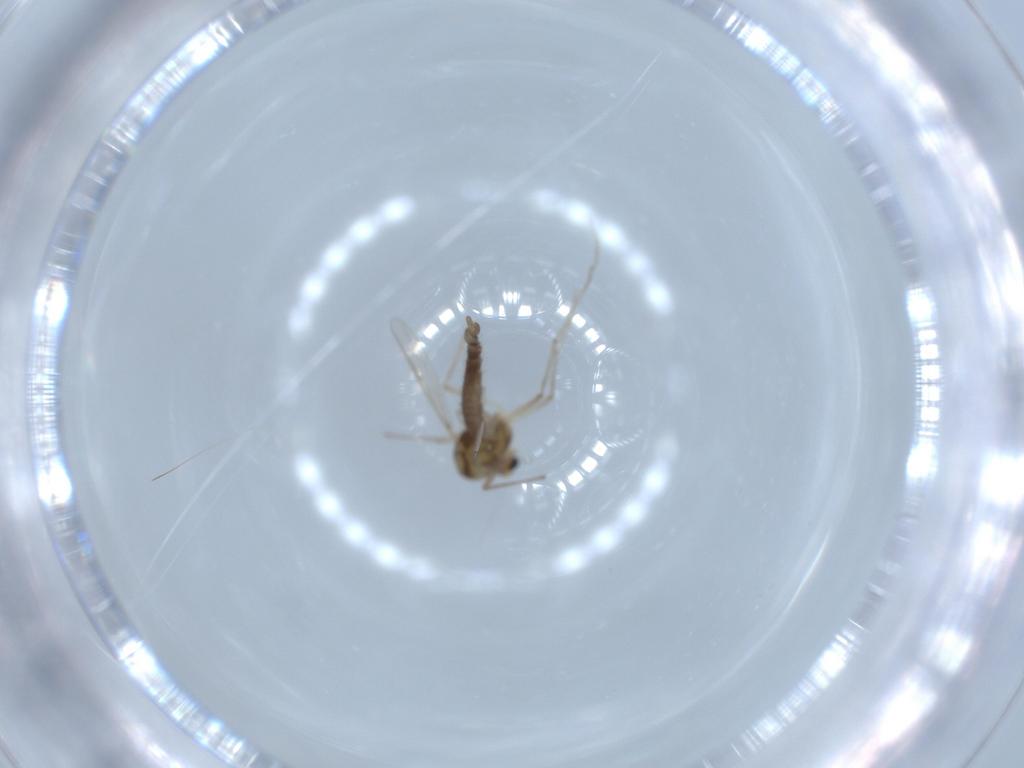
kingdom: Animalia
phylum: Arthropoda
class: Insecta
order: Diptera
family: Chironomidae
